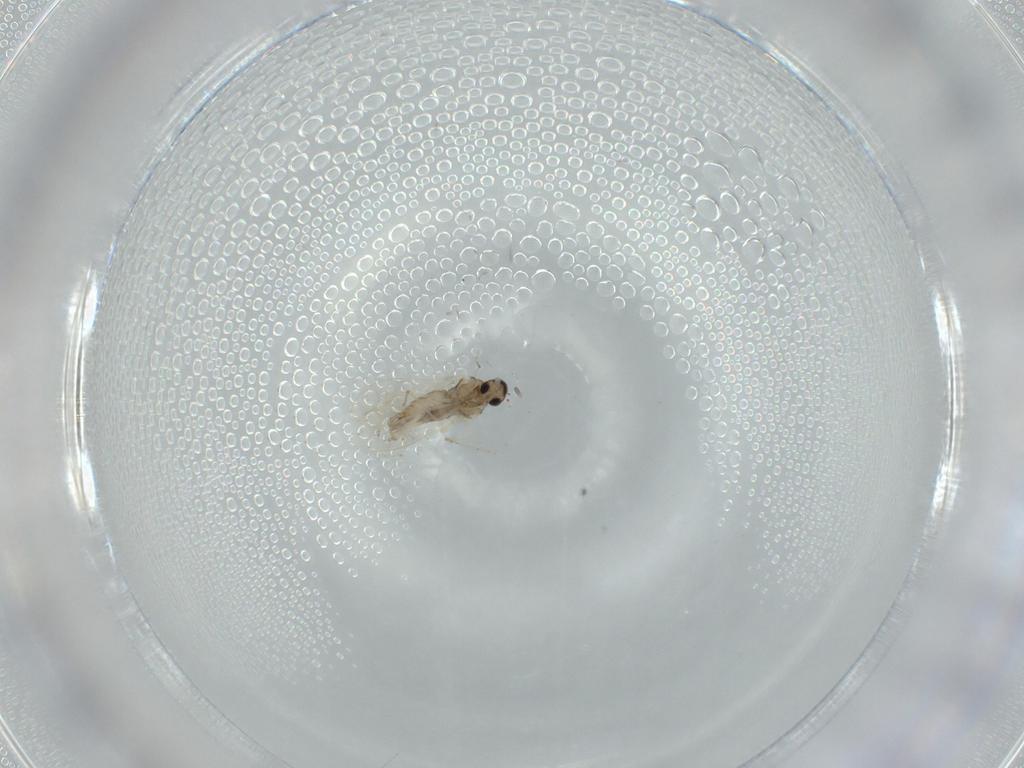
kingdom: Animalia
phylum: Arthropoda
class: Insecta
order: Diptera
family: Cecidomyiidae
